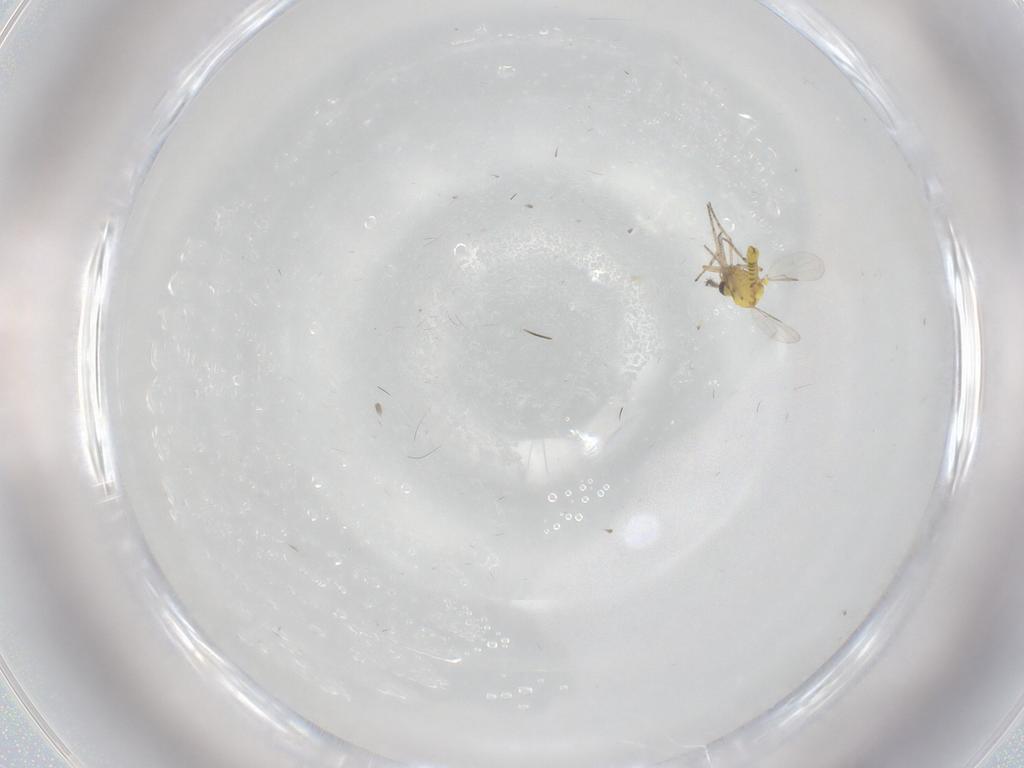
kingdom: Animalia
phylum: Arthropoda
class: Insecta
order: Diptera
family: Ceratopogonidae
